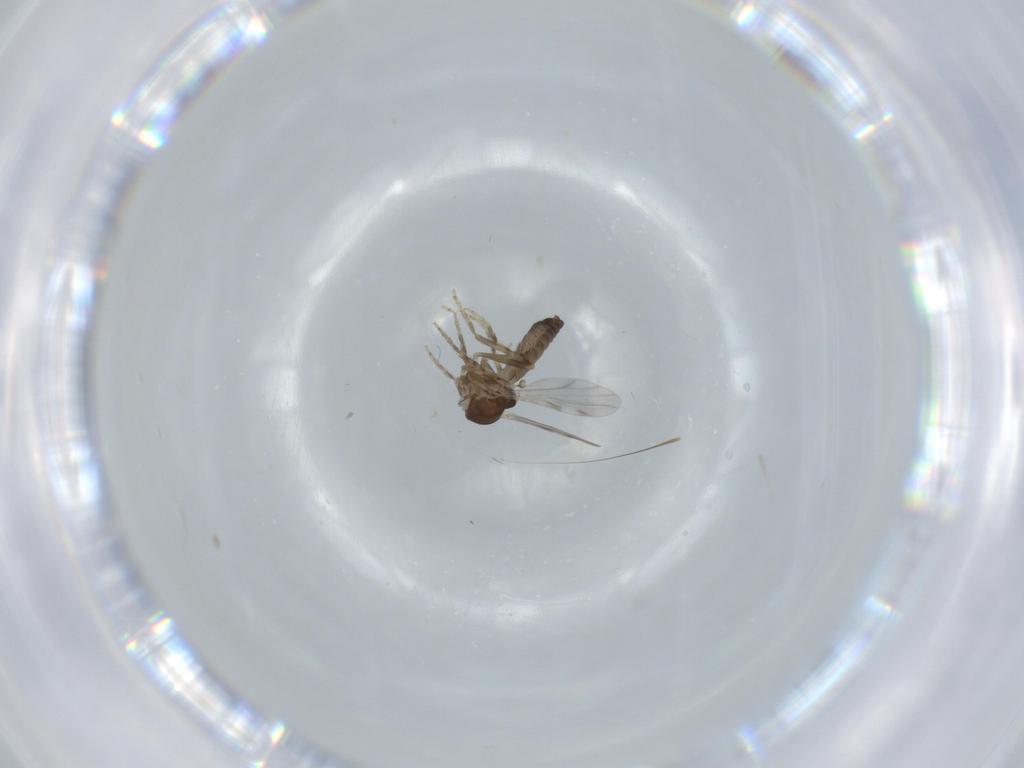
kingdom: Animalia
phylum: Arthropoda
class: Insecta
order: Diptera
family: Ceratopogonidae
